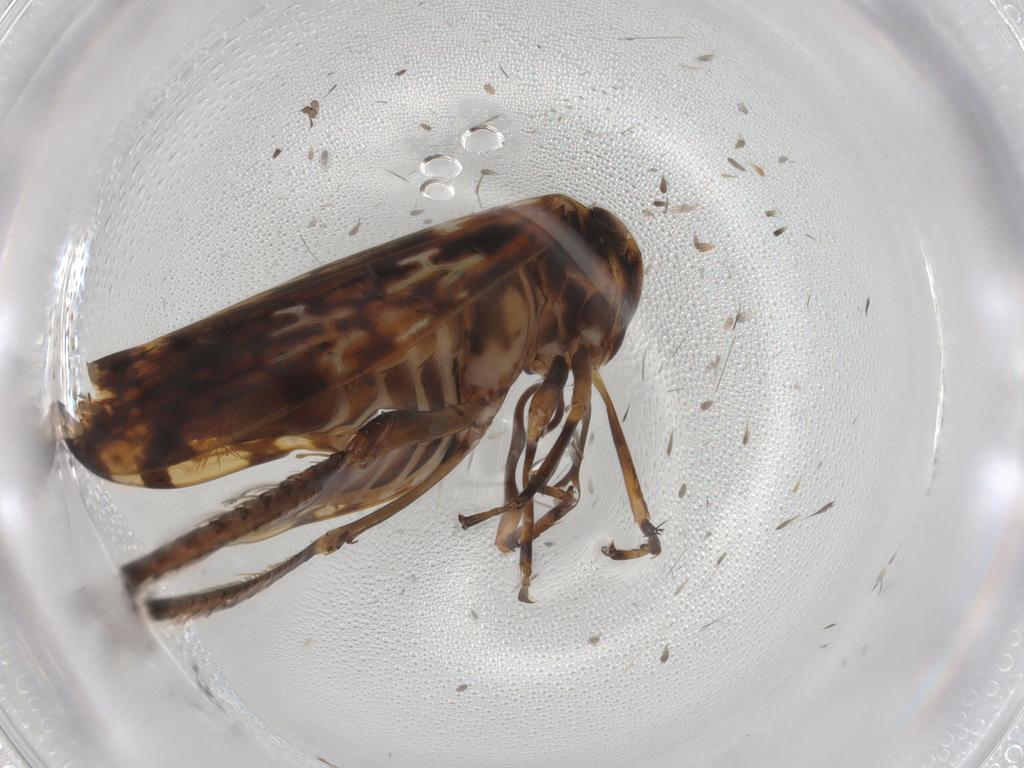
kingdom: Animalia
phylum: Arthropoda
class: Insecta
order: Hemiptera
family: Cicadellidae
